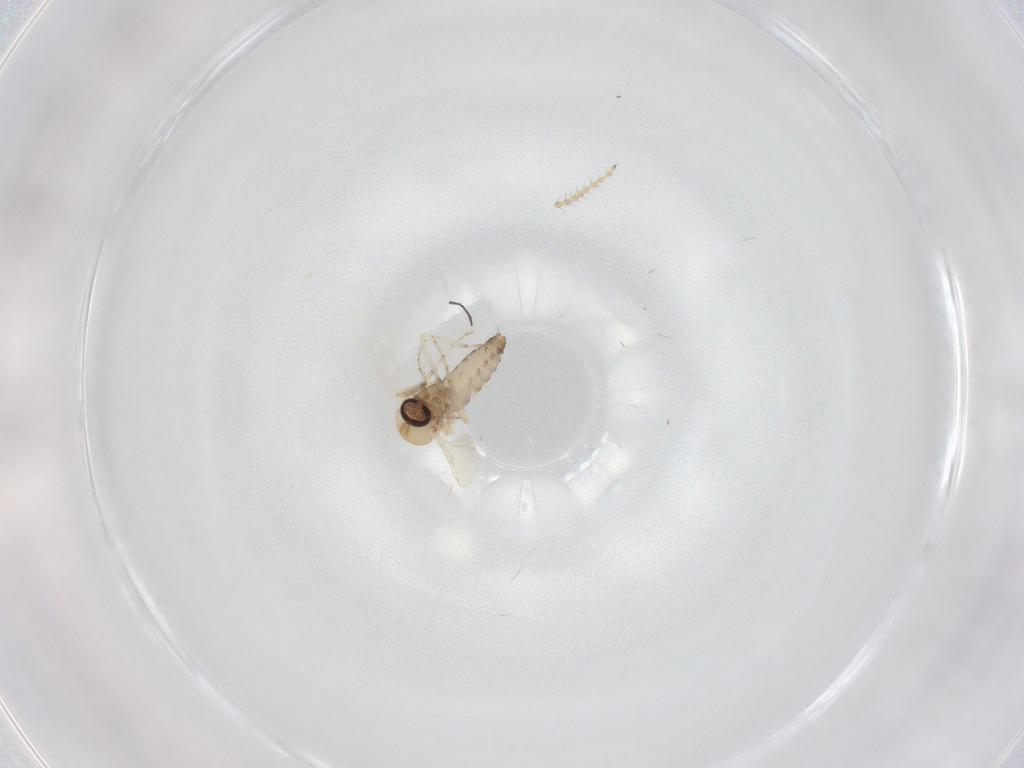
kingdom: Animalia
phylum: Arthropoda
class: Insecta
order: Diptera
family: Ceratopogonidae
